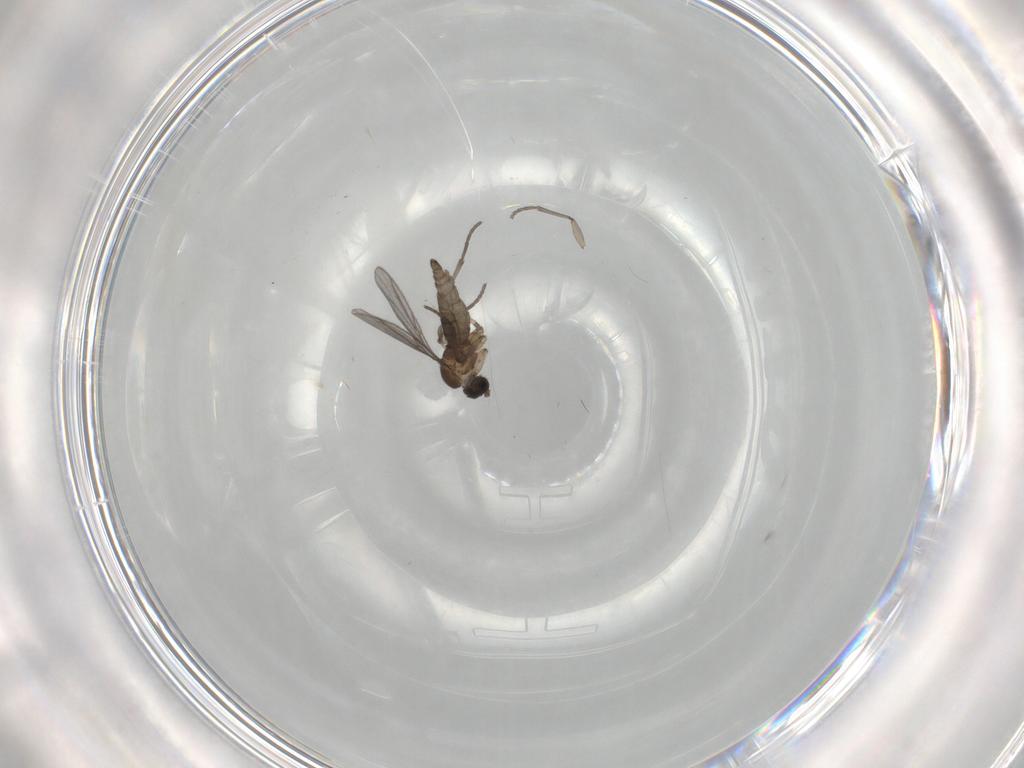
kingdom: Animalia
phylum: Arthropoda
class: Insecta
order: Diptera
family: Sciaridae
